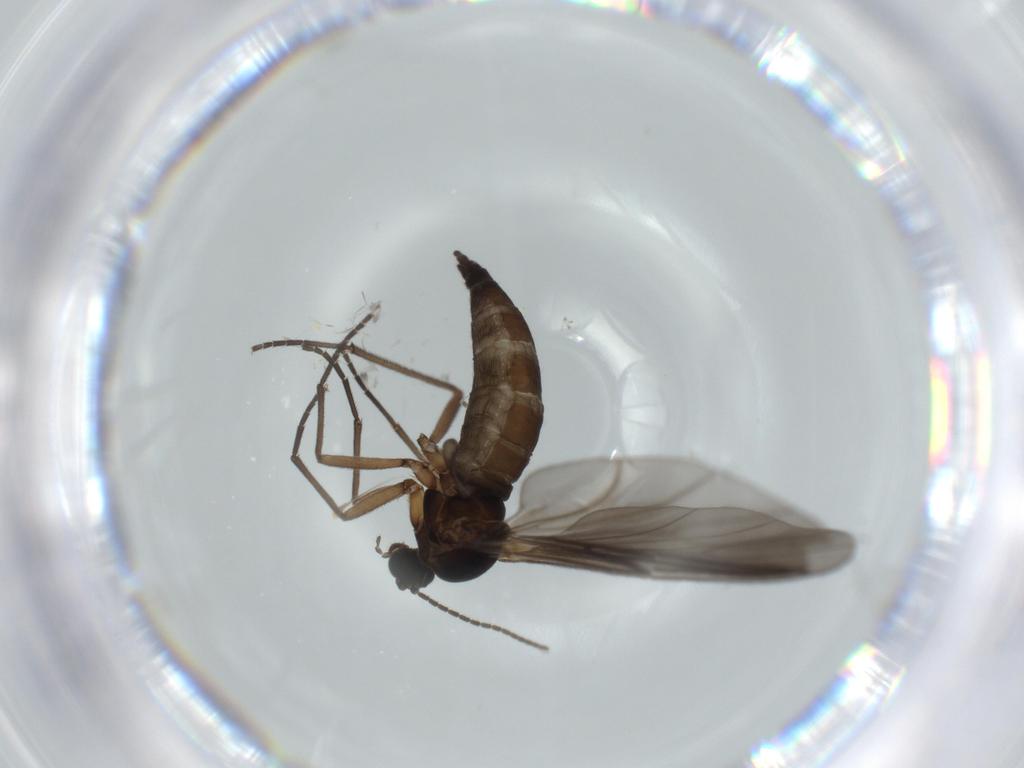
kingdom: Animalia
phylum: Arthropoda
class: Insecta
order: Diptera
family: Sciaridae
